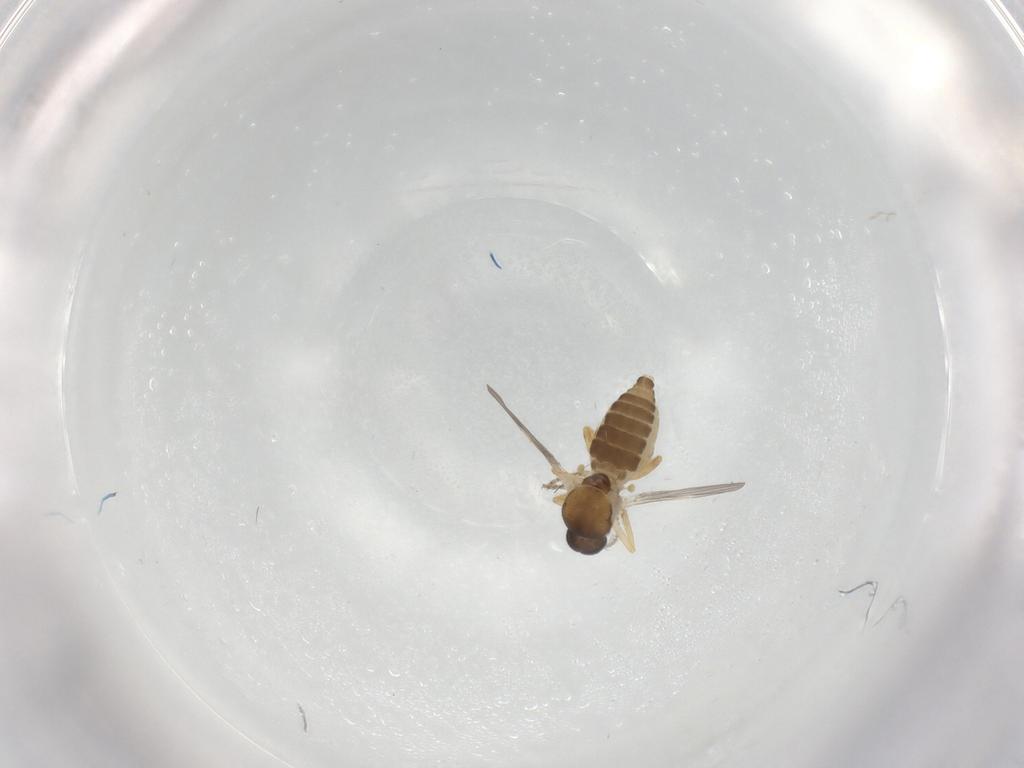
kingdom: Animalia
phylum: Arthropoda
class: Insecta
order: Diptera
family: Ceratopogonidae
